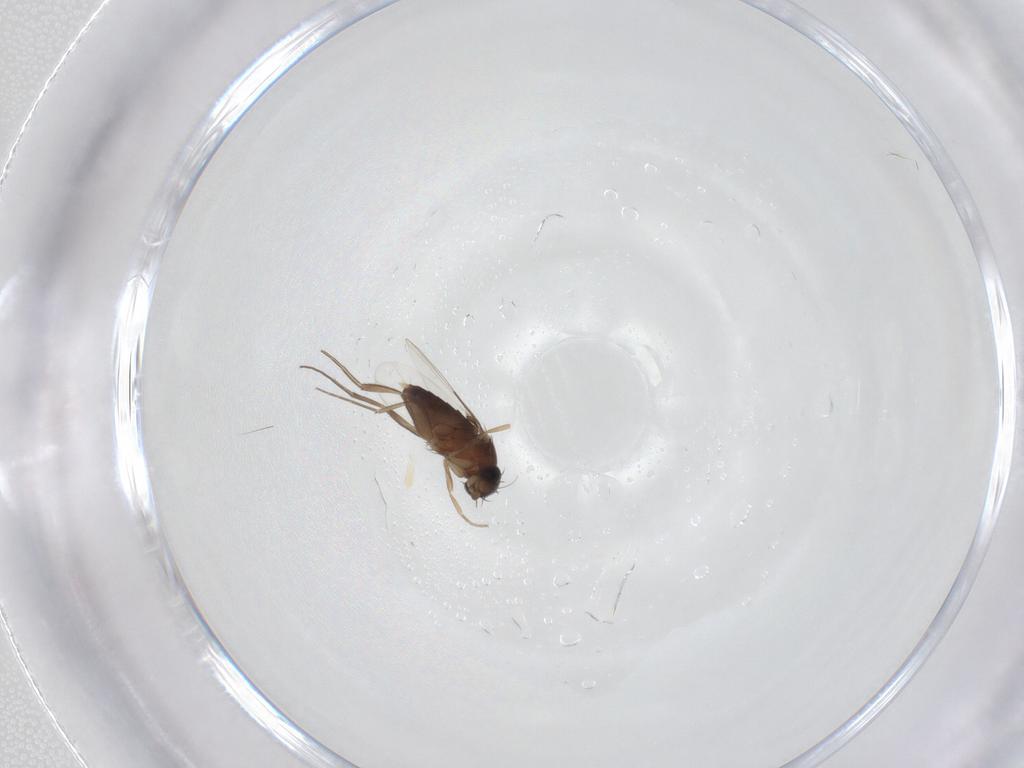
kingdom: Animalia
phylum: Arthropoda
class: Insecta
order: Diptera
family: Phoridae
